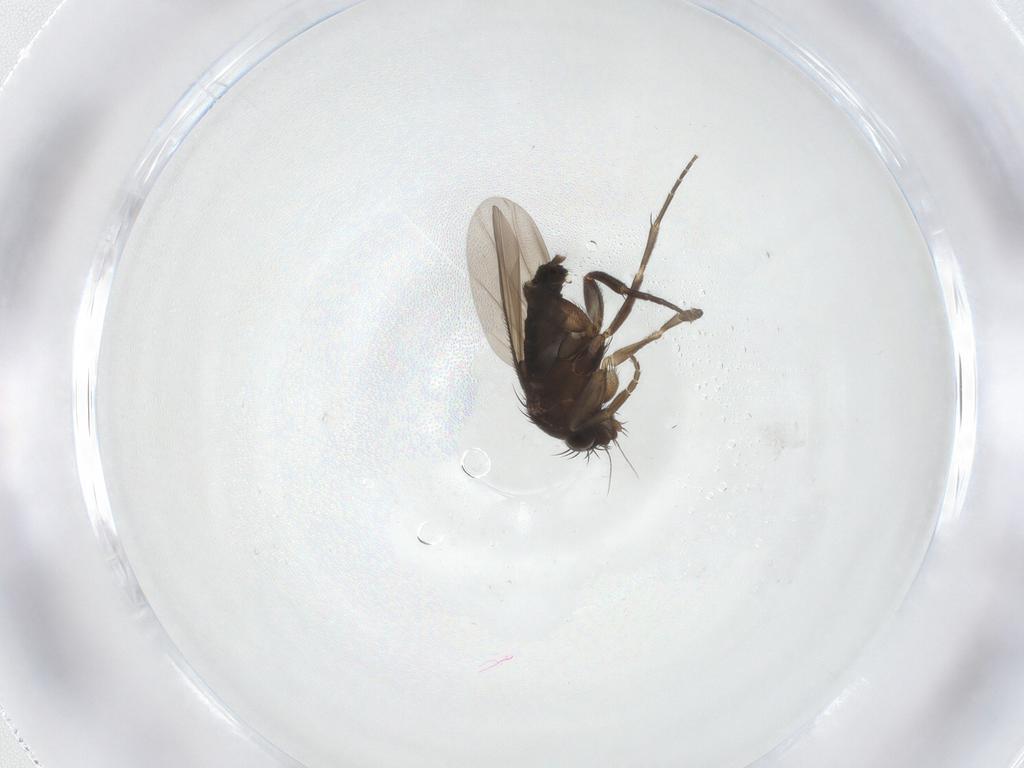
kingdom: Animalia
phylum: Arthropoda
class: Insecta
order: Diptera
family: Phoridae
